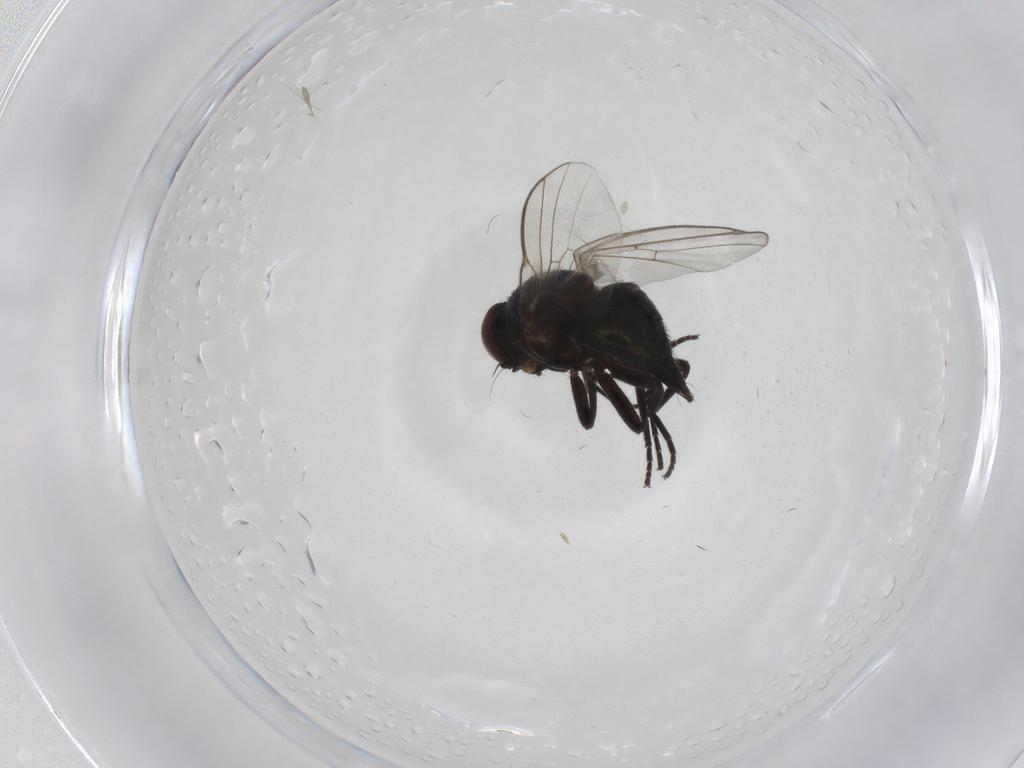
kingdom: Animalia
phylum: Arthropoda
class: Insecta
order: Diptera
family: Agromyzidae
